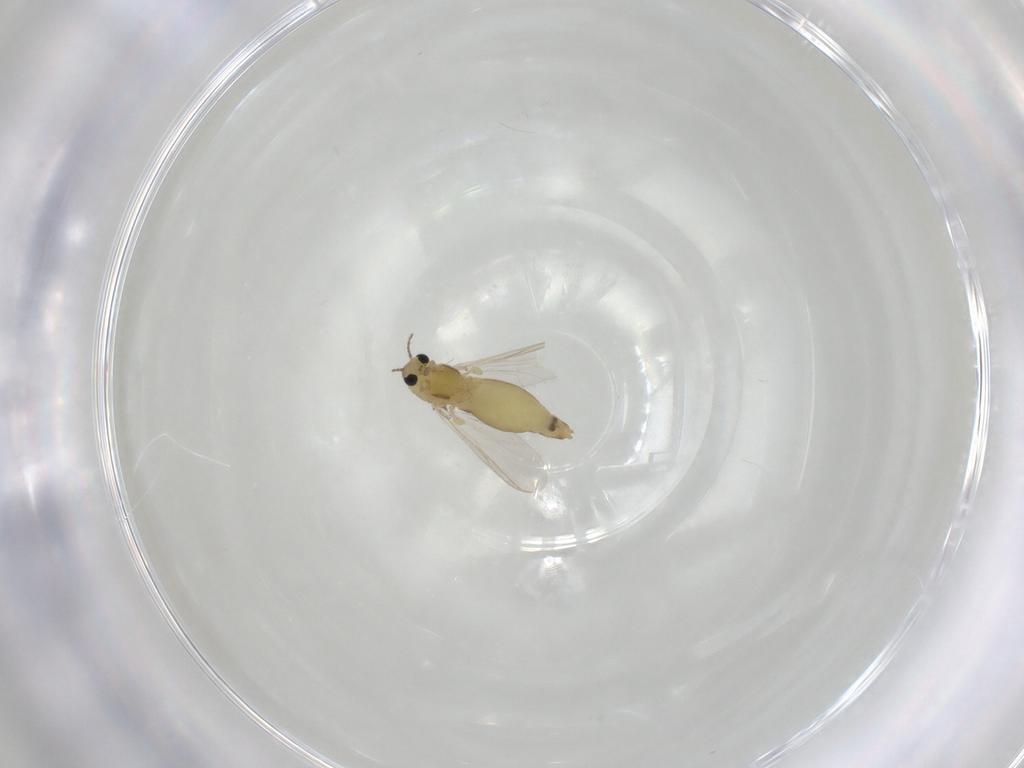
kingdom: Animalia
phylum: Arthropoda
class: Insecta
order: Diptera
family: Chironomidae
